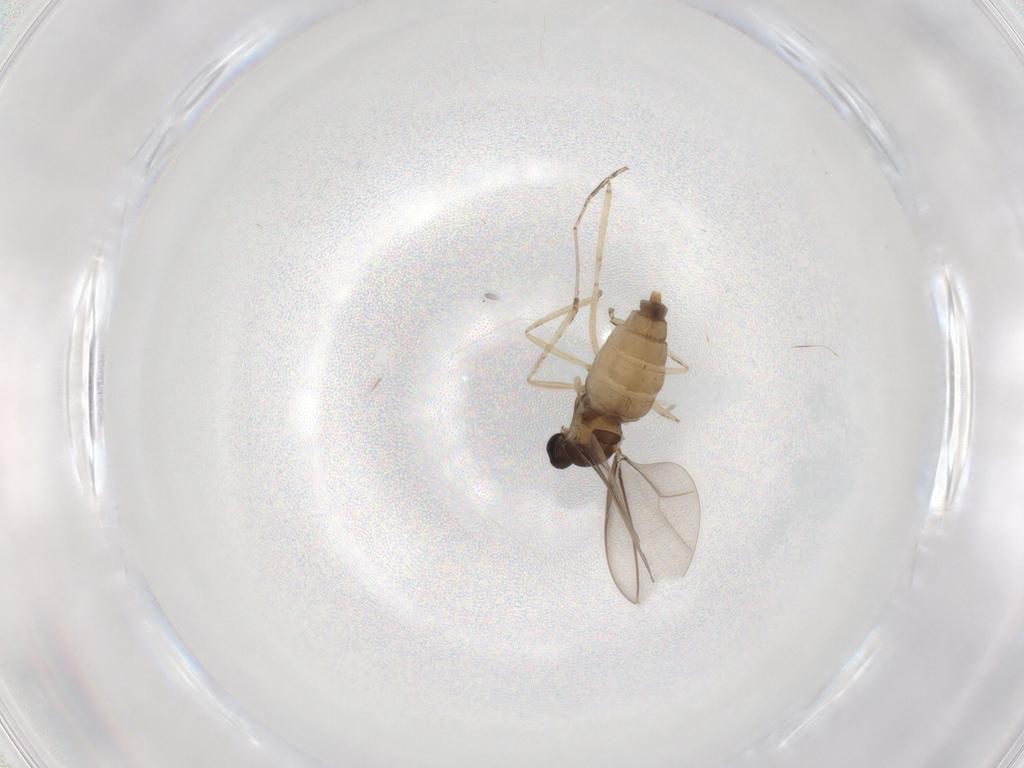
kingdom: Animalia
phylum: Arthropoda
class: Insecta
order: Diptera
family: Cecidomyiidae
